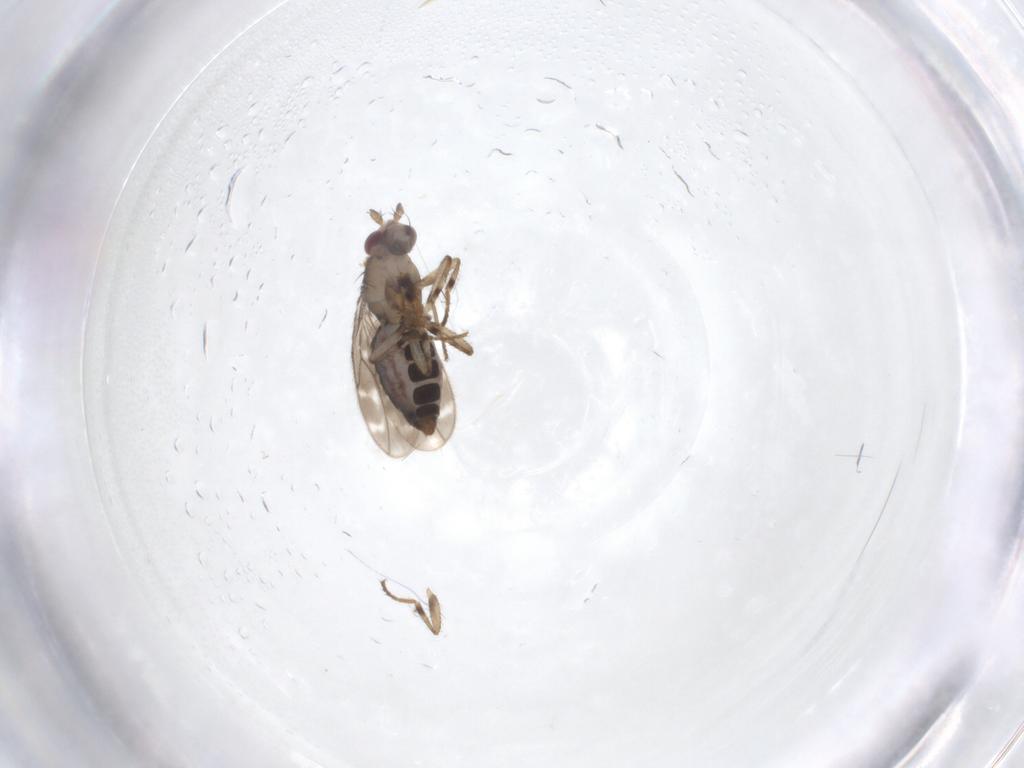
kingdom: Animalia
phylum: Arthropoda
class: Insecta
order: Diptera
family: Sphaeroceridae
